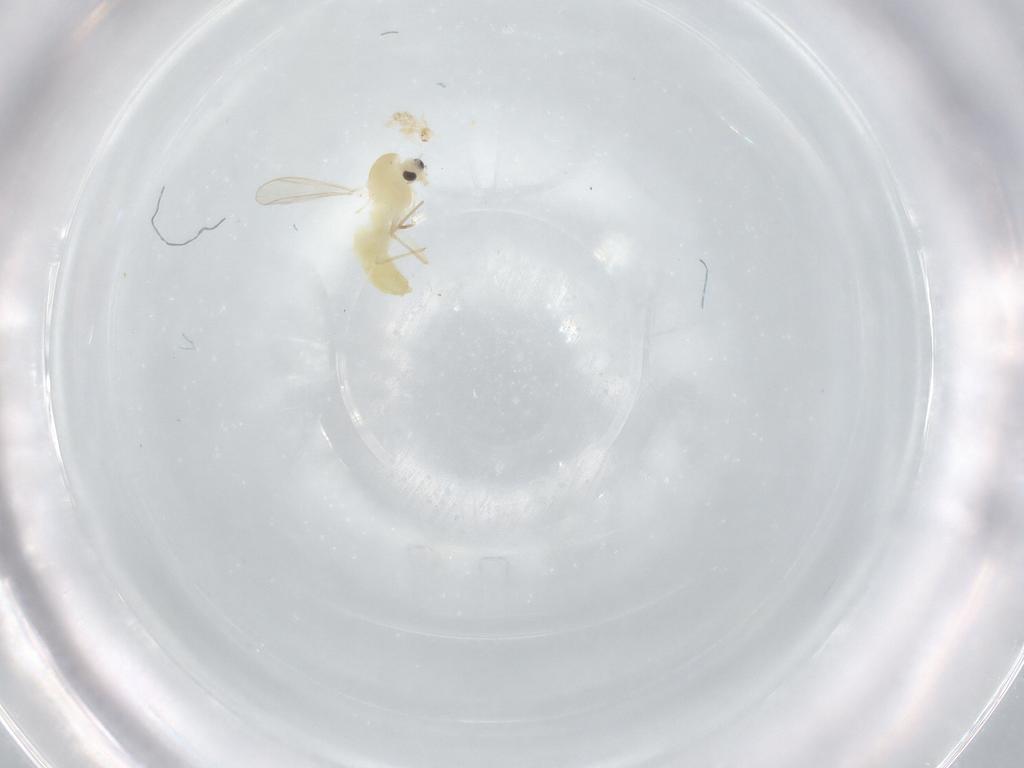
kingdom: Animalia
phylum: Arthropoda
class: Insecta
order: Diptera
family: Chironomidae
